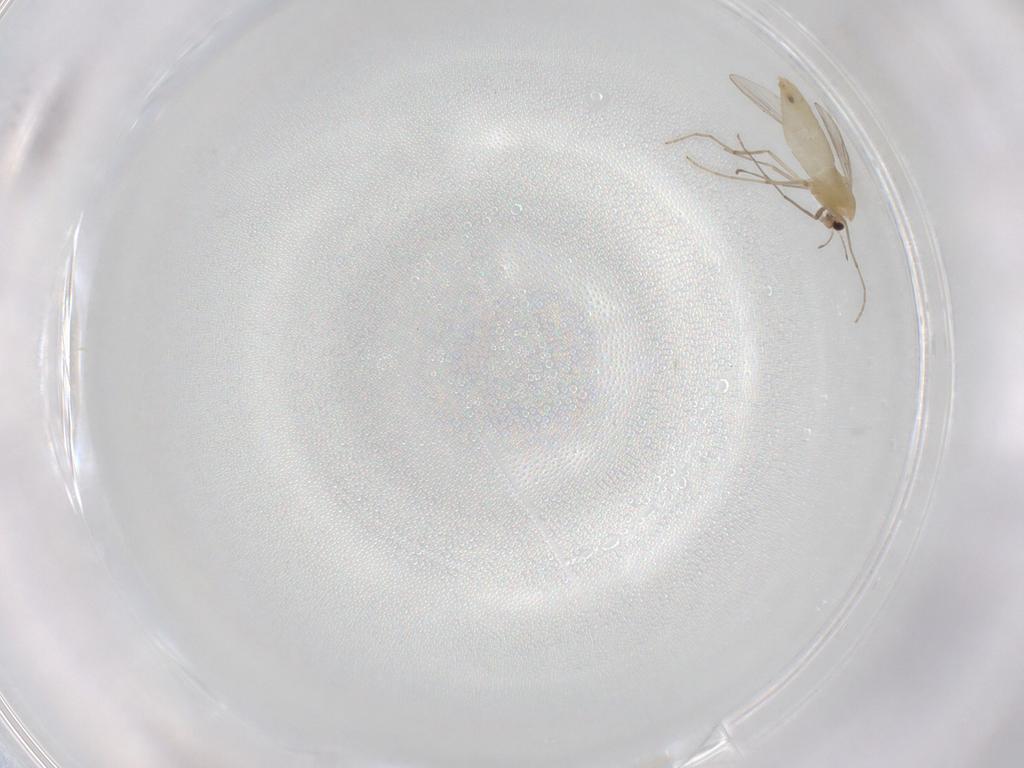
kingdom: Animalia
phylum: Arthropoda
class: Insecta
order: Diptera
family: Chironomidae
